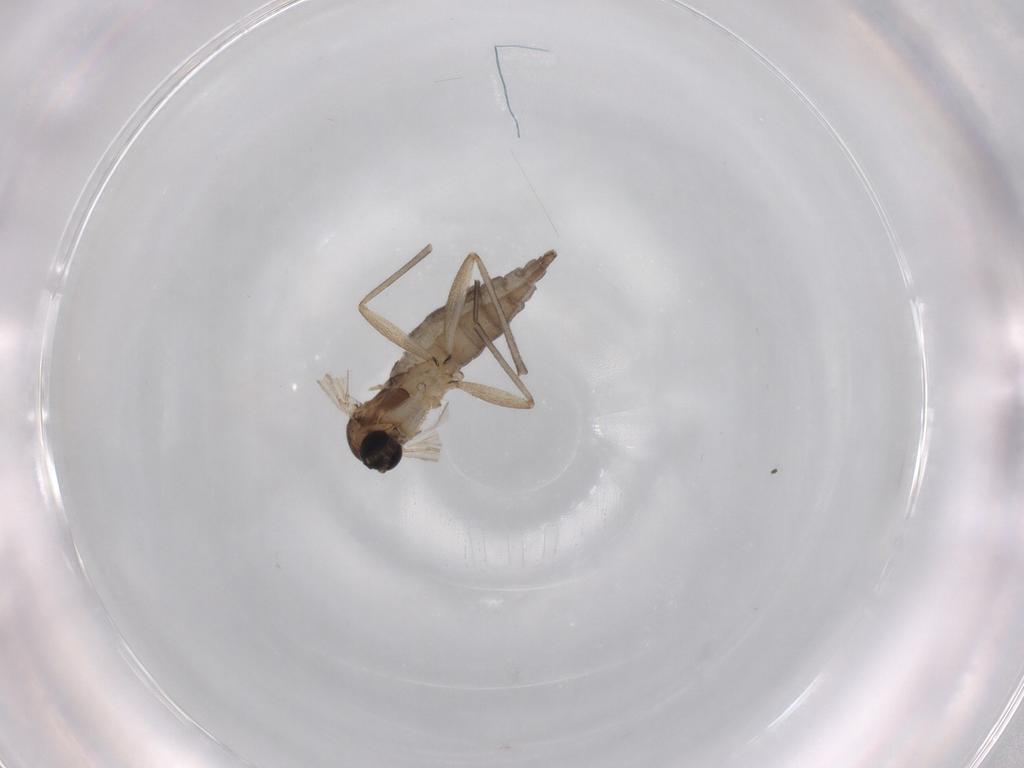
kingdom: Animalia
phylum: Arthropoda
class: Insecta
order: Diptera
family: Sciaridae
